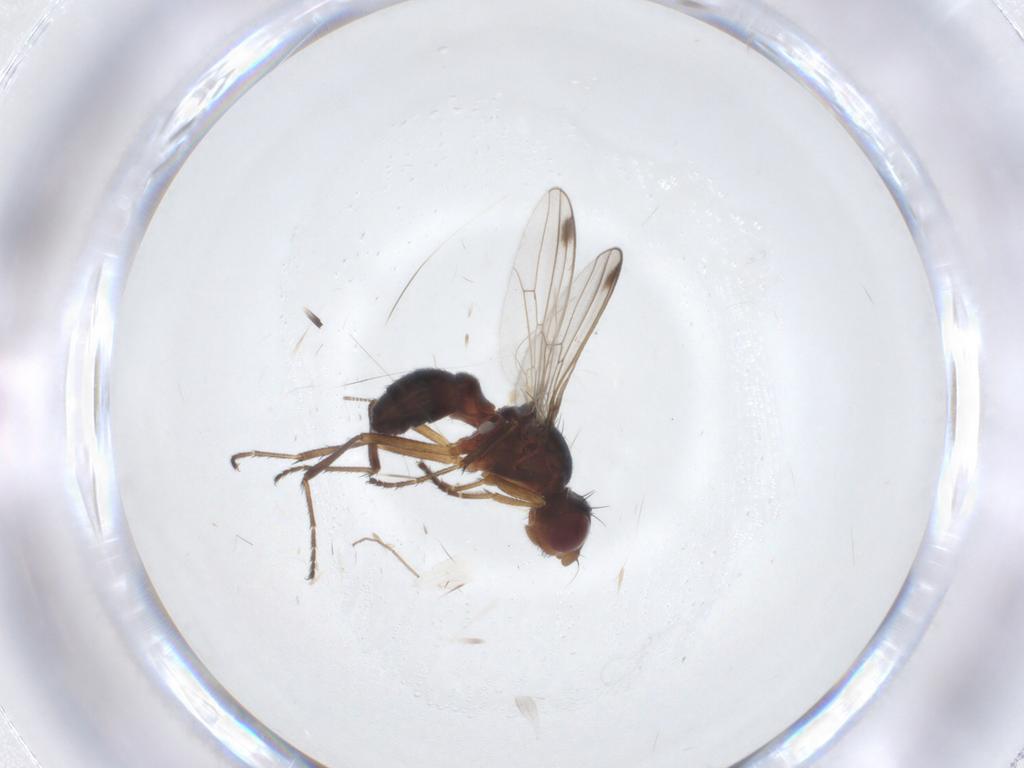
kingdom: Animalia
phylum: Arthropoda
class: Insecta
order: Diptera
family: Chironomidae
